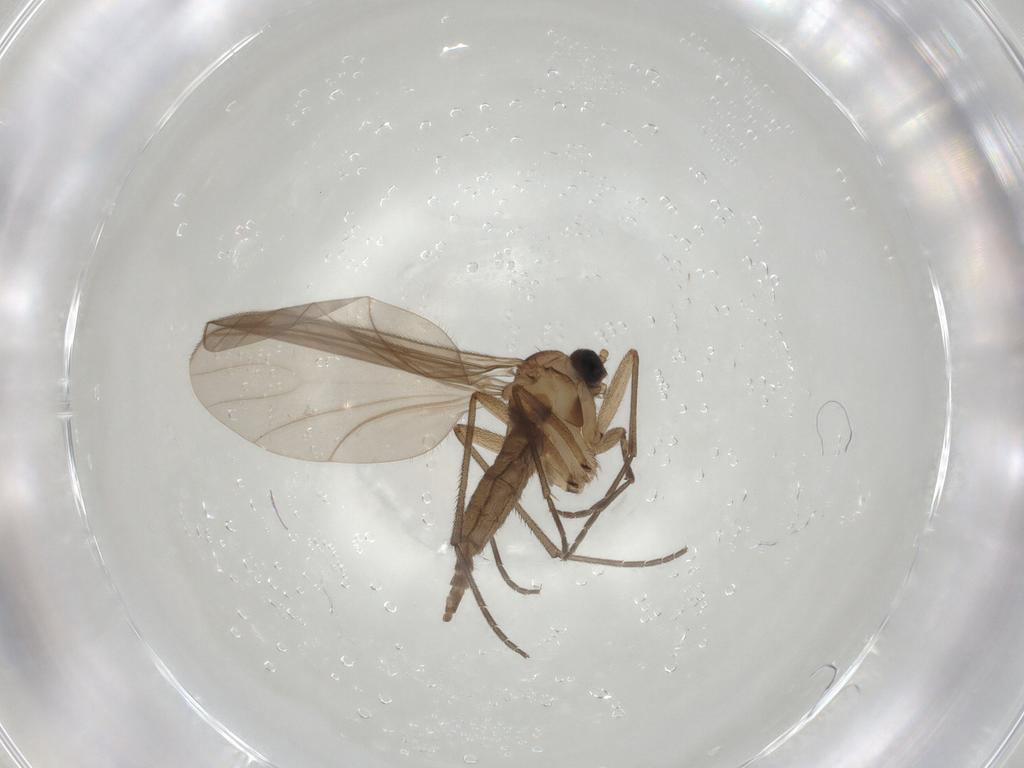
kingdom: Animalia
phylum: Arthropoda
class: Insecta
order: Diptera
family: Sciaridae
